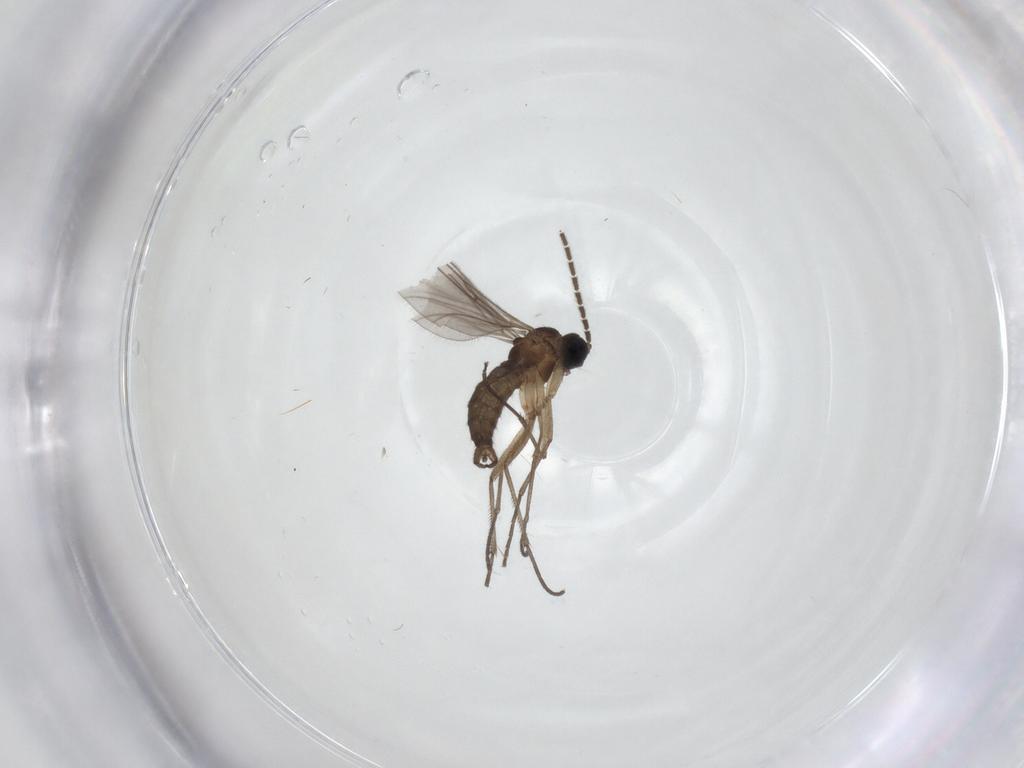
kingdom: Animalia
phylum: Arthropoda
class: Insecta
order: Diptera
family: Sciaridae
